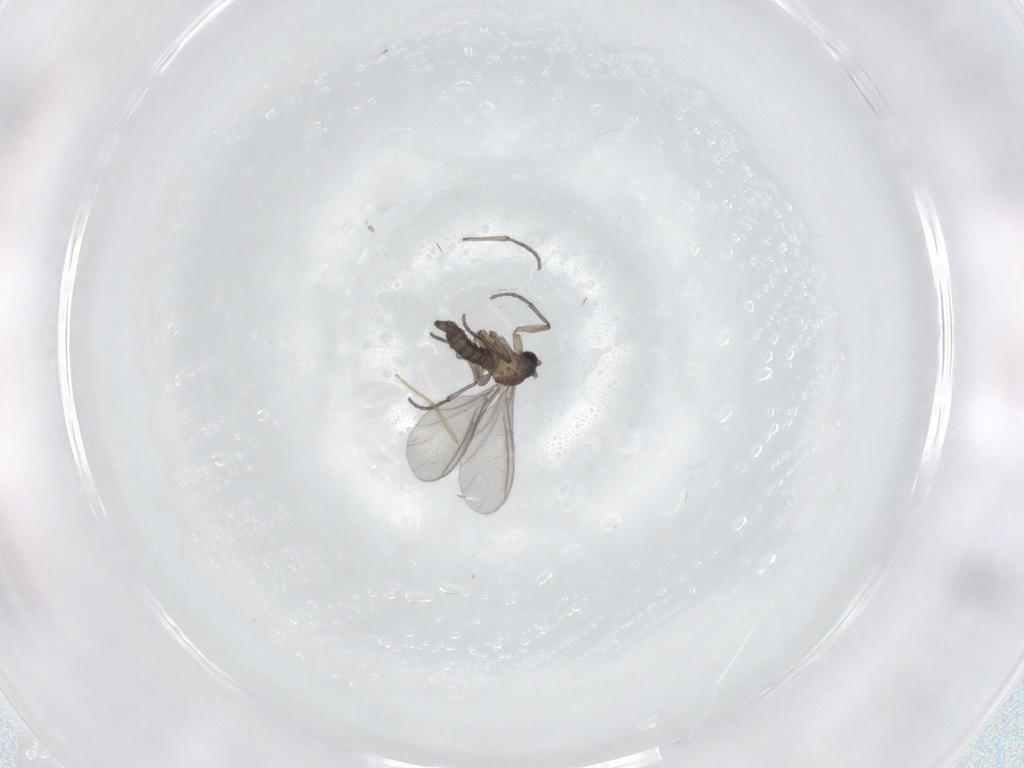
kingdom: Animalia
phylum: Arthropoda
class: Insecta
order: Diptera
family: Sciaridae
